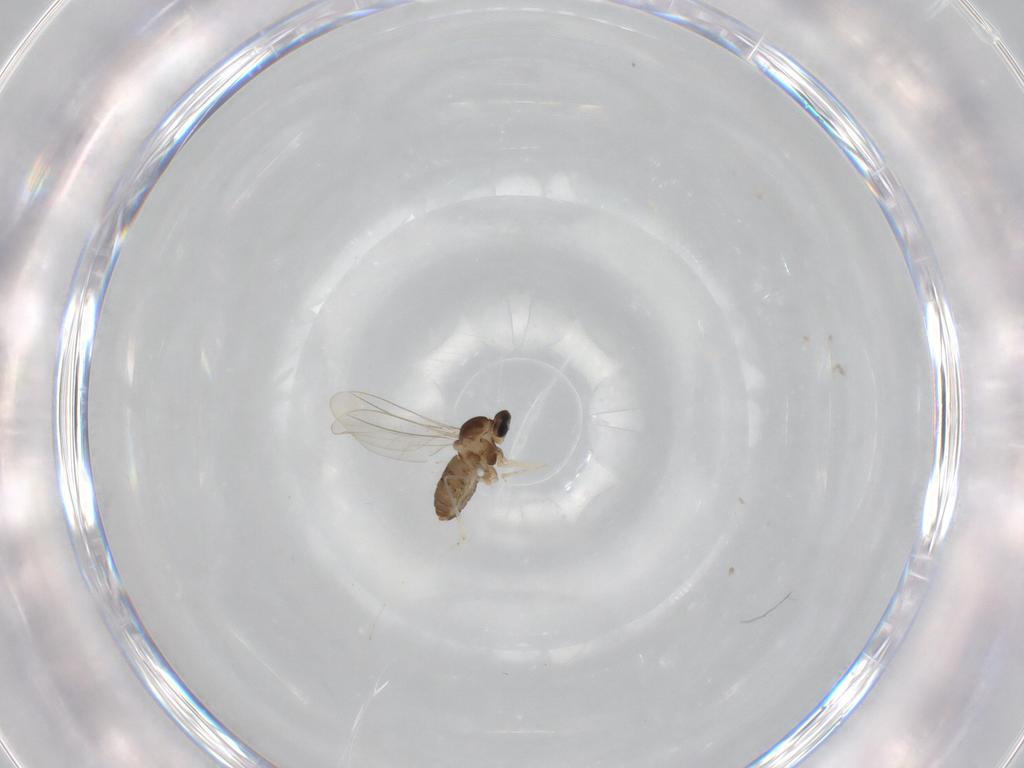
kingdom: Animalia
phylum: Arthropoda
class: Insecta
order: Diptera
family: Cecidomyiidae
